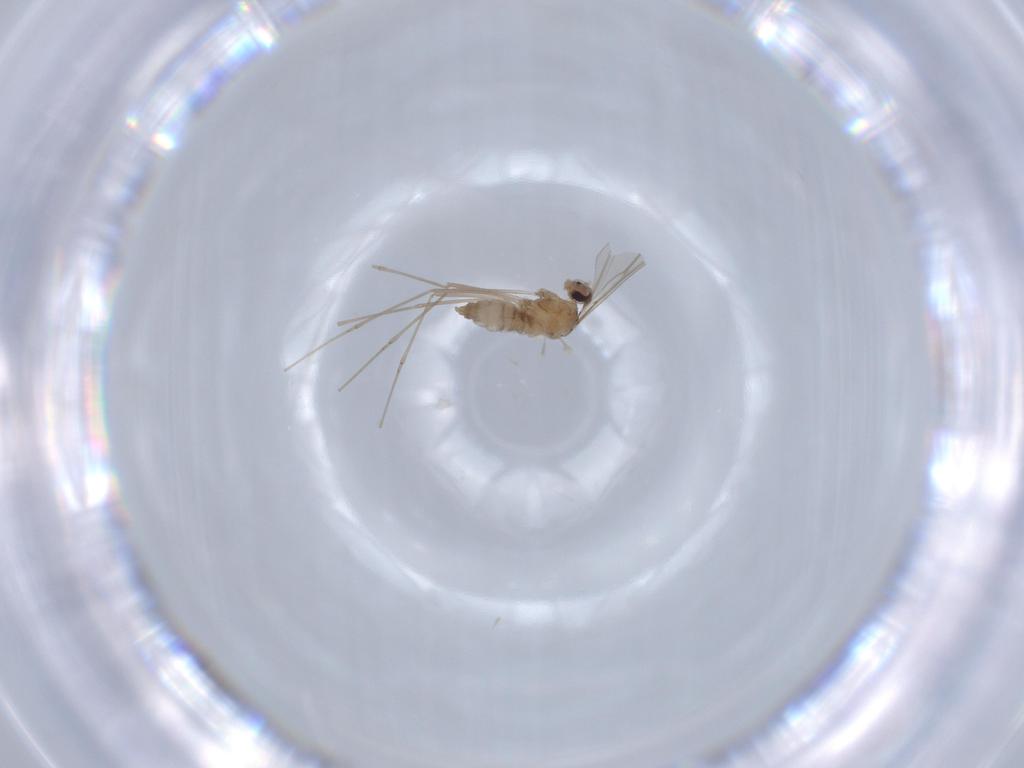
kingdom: Animalia
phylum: Arthropoda
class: Insecta
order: Diptera
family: Cecidomyiidae
